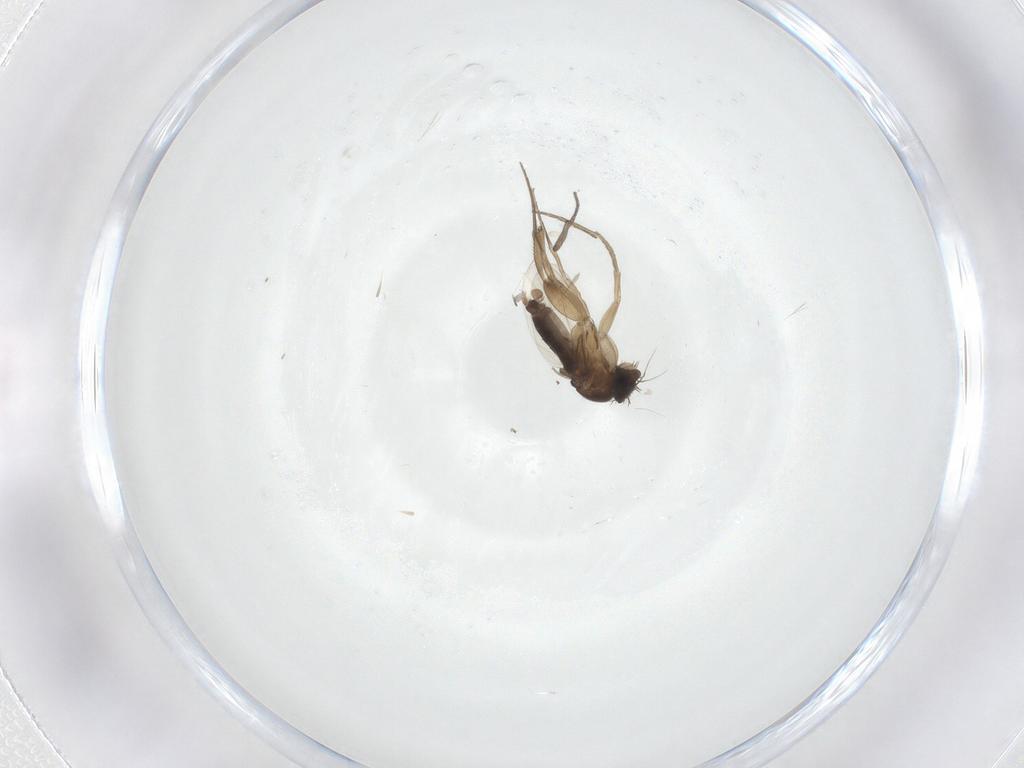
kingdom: Animalia
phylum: Arthropoda
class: Insecta
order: Diptera
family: Phoridae
